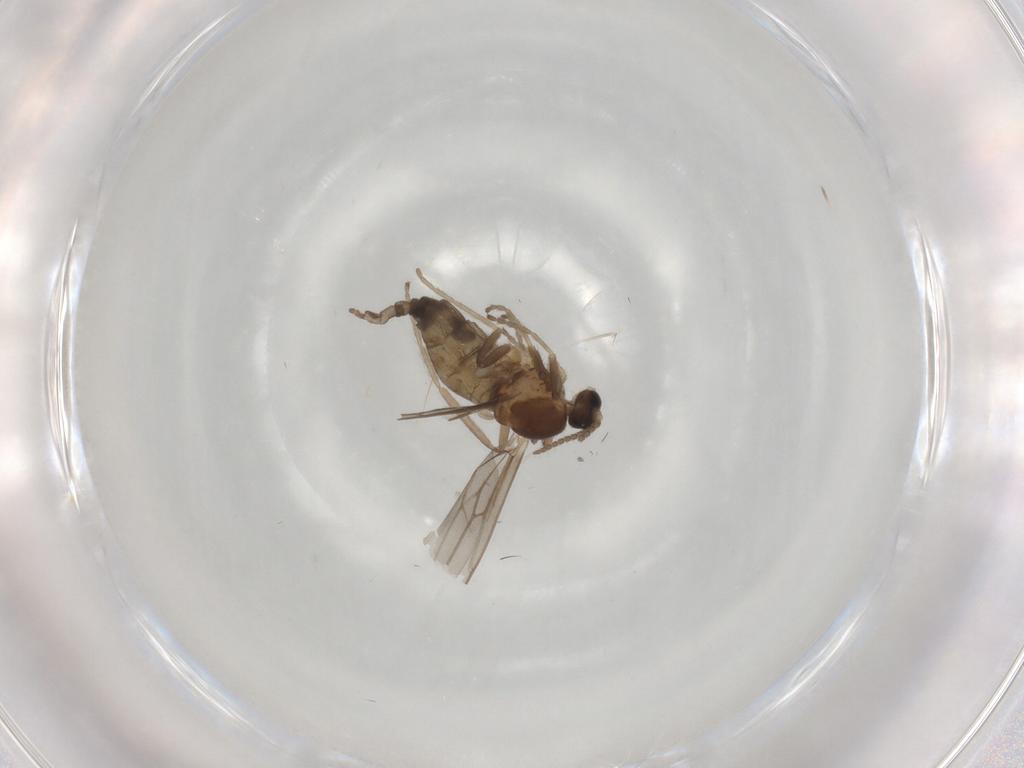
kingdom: Animalia
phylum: Arthropoda
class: Insecta
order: Diptera
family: Cecidomyiidae
